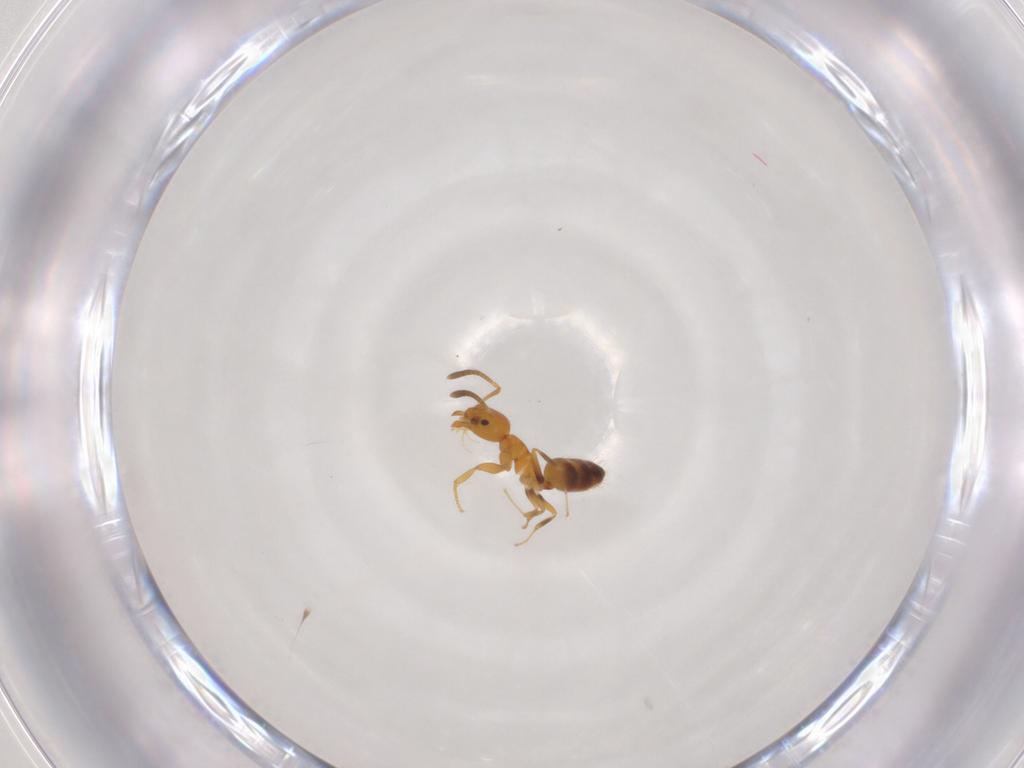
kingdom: Animalia
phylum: Arthropoda
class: Insecta
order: Hymenoptera
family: Formicidae
